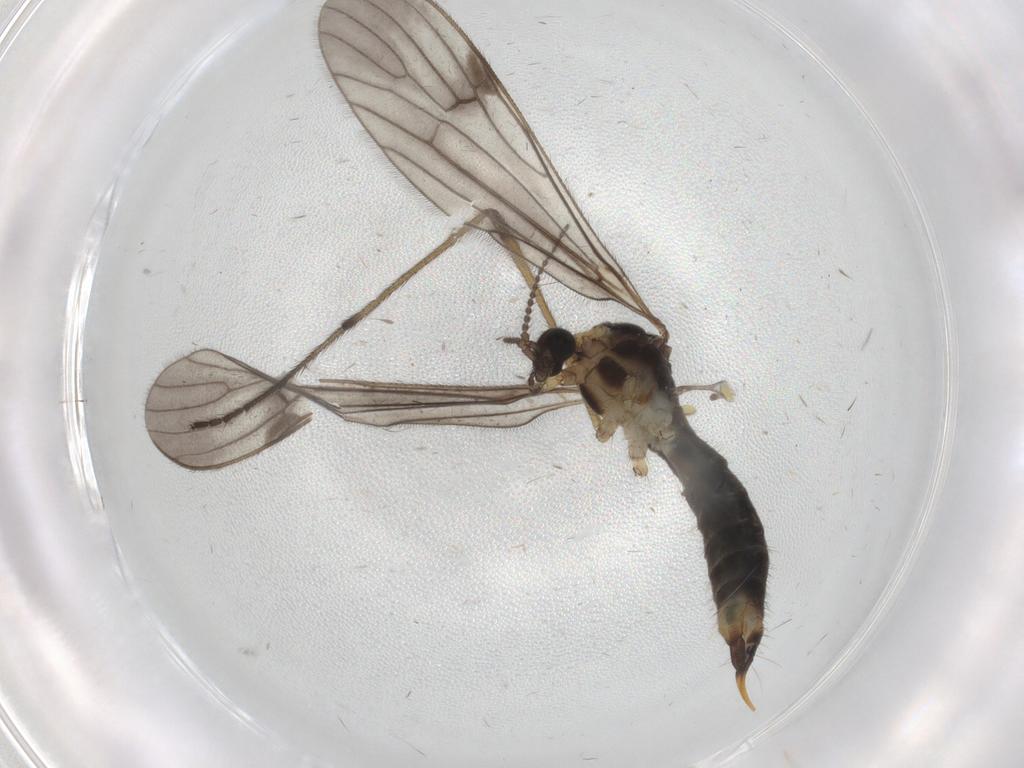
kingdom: Animalia
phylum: Arthropoda
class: Insecta
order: Diptera
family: Limoniidae
